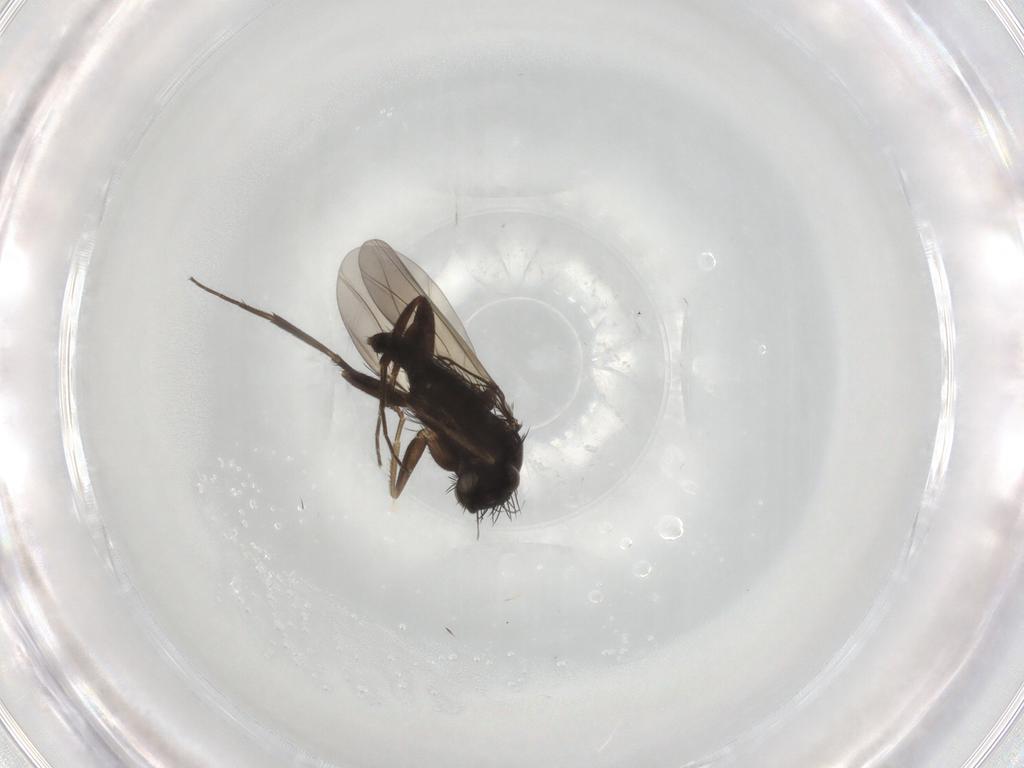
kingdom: Animalia
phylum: Arthropoda
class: Insecta
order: Diptera
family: Phoridae
